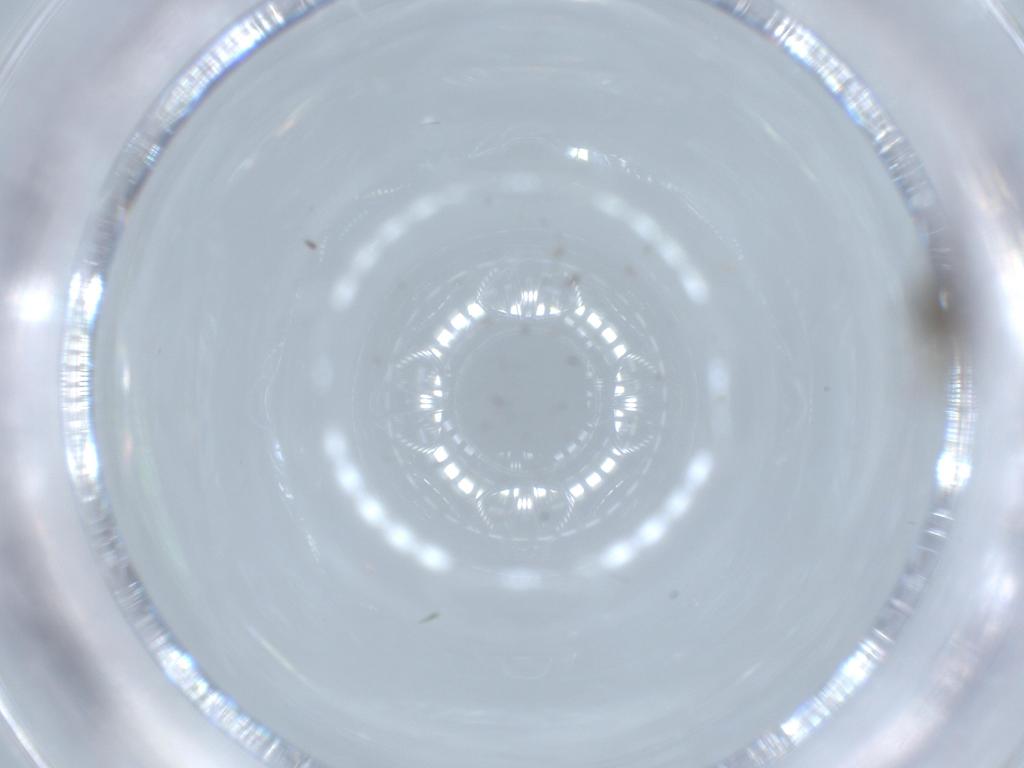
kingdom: Animalia
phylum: Arthropoda
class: Insecta
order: Diptera
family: Sciaridae
